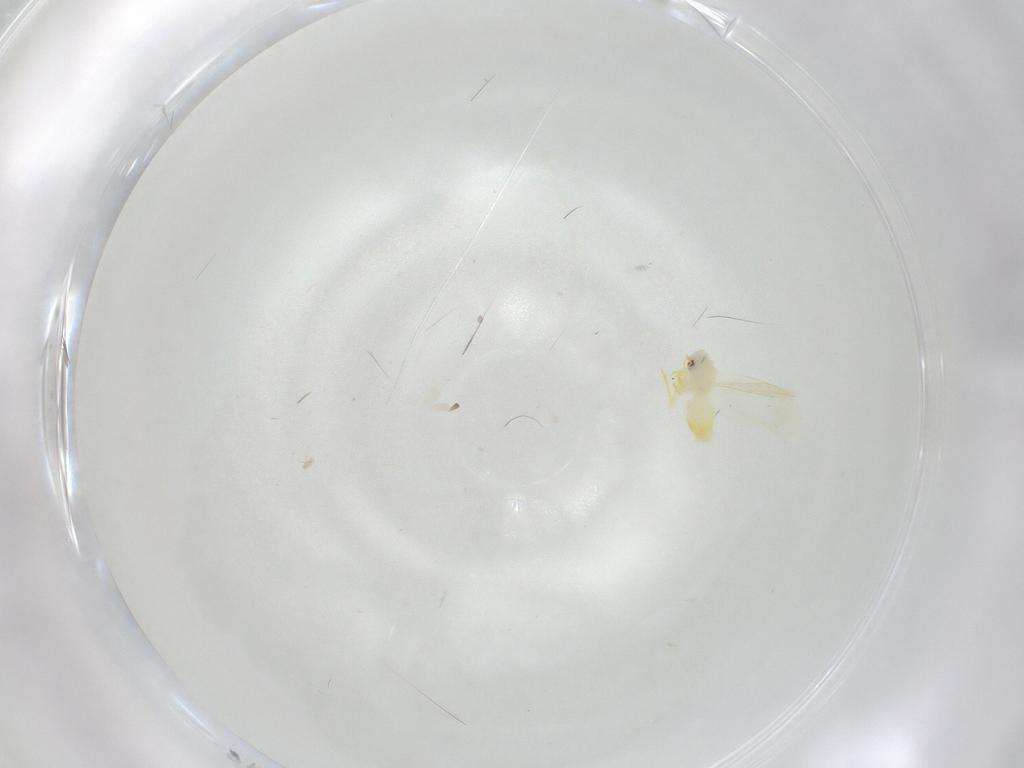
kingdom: Animalia
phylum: Arthropoda
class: Insecta
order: Hemiptera
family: Aleyrodidae
